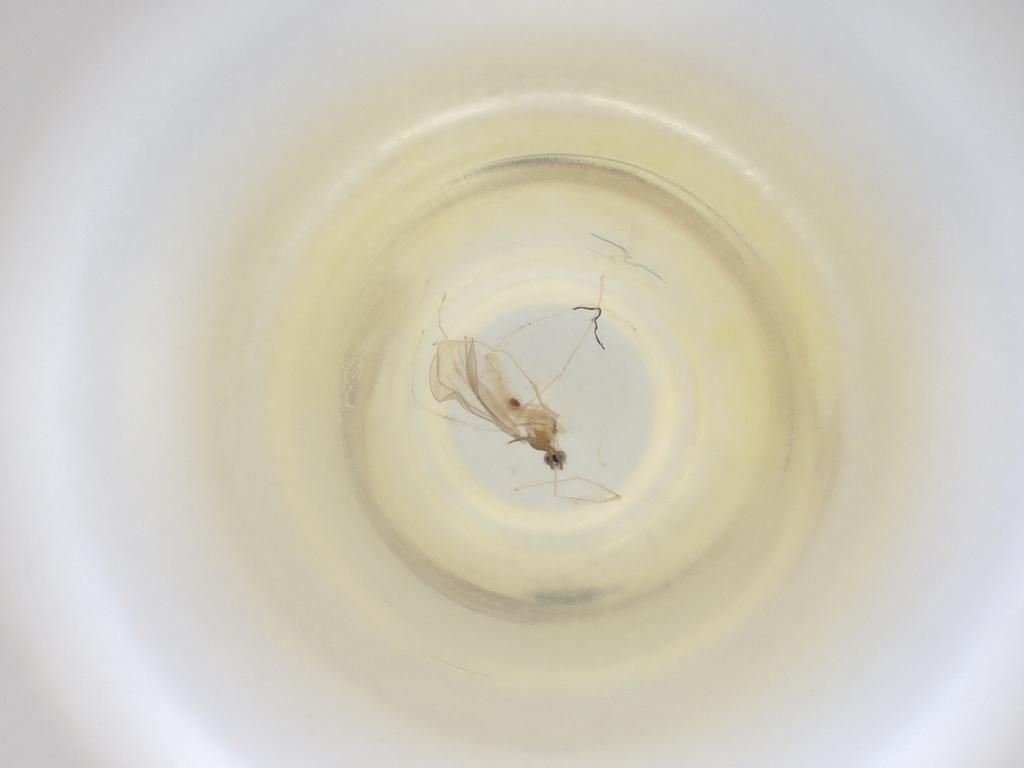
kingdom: Animalia
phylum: Arthropoda
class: Insecta
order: Diptera
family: Cecidomyiidae
